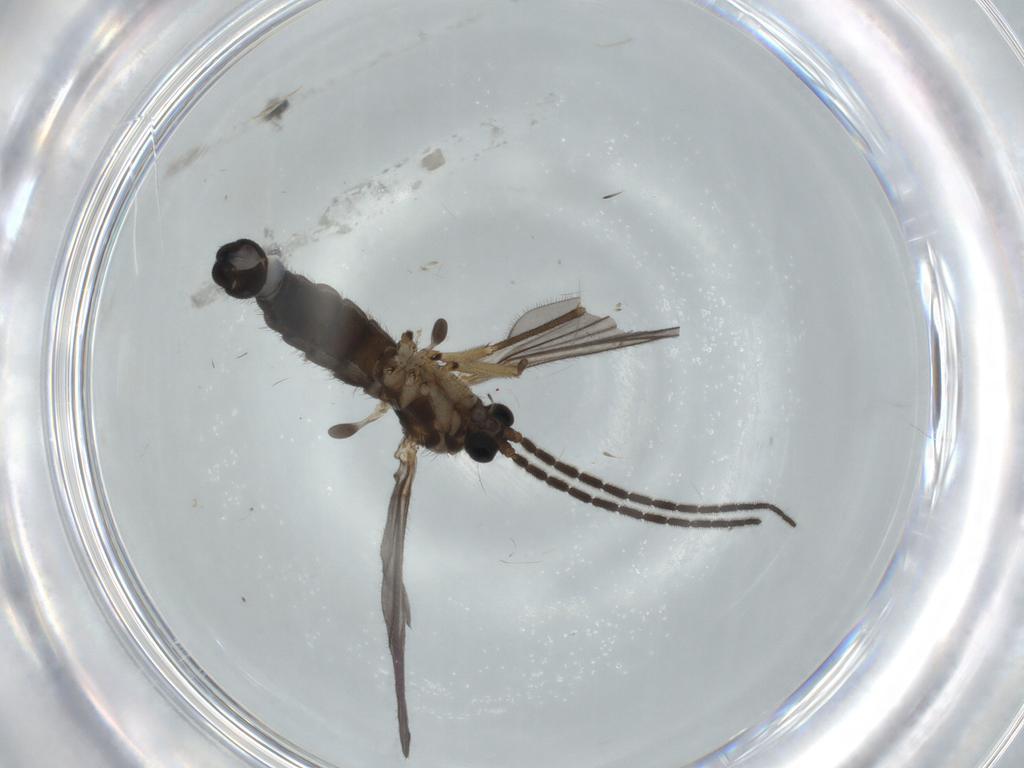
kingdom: Animalia
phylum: Arthropoda
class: Insecta
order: Diptera
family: Sciaridae
